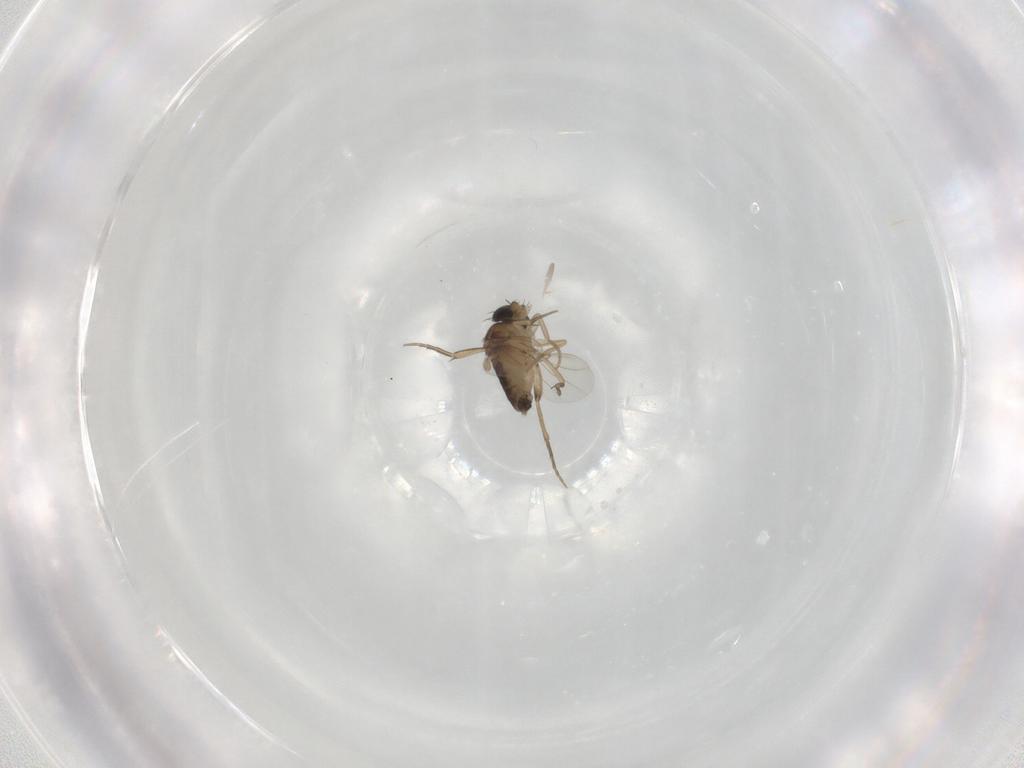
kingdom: Animalia
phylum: Arthropoda
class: Insecta
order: Diptera
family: Phoridae
